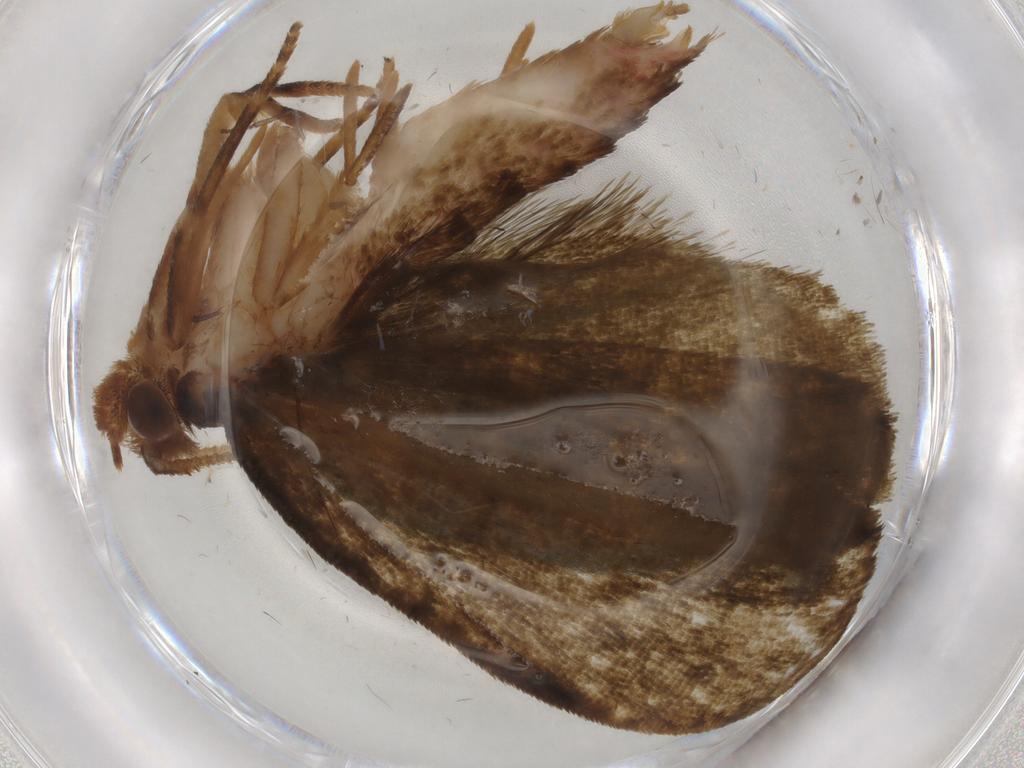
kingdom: Animalia
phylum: Arthropoda
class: Insecta
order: Lepidoptera
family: Geometridae
